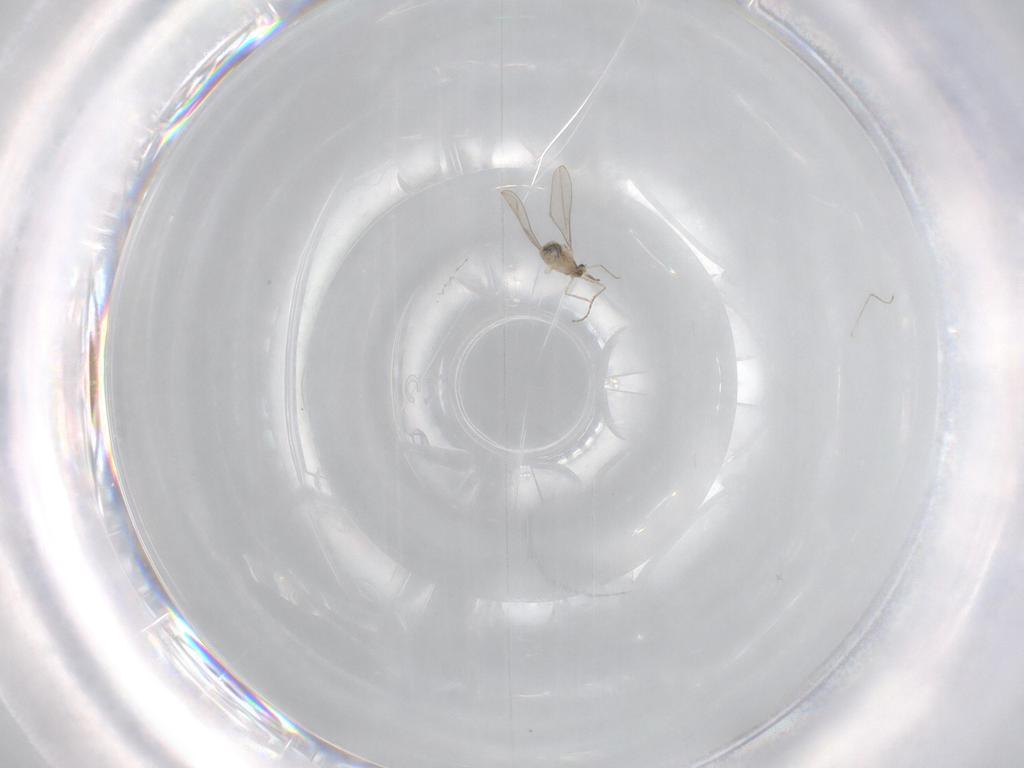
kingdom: Animalia
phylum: Arthropoda
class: Insecta
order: Diptera
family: Cecidomyiidae
